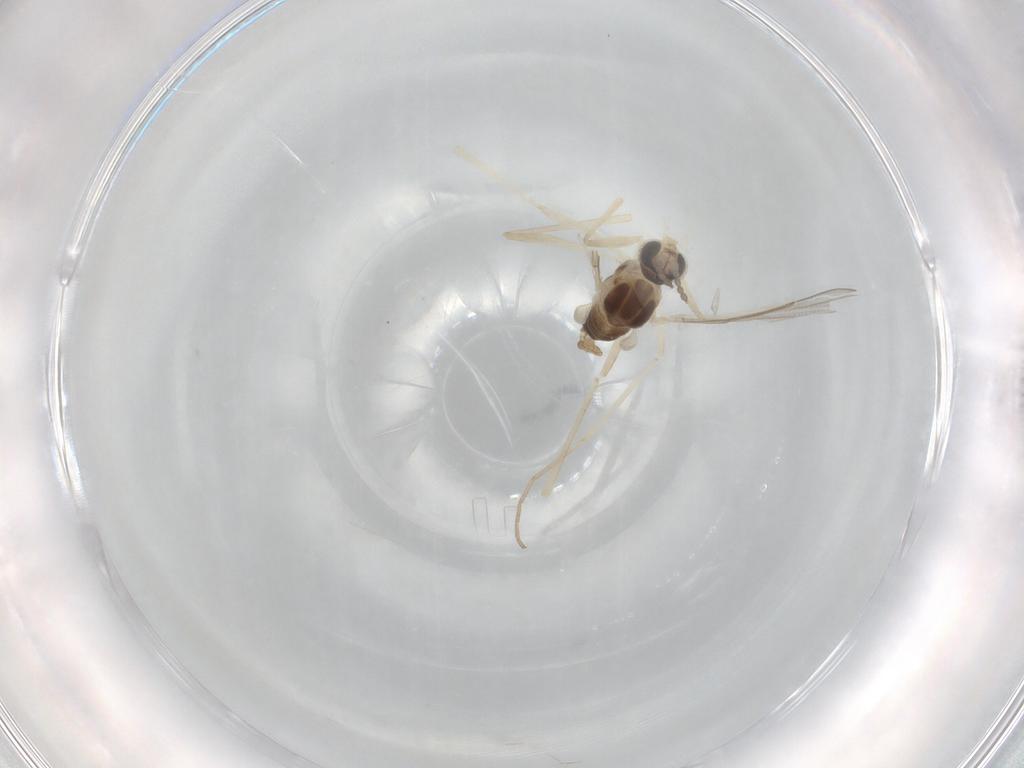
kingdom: Animalia
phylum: Arthropoda
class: Insecta
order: Diptera
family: Cecidomyiidae
